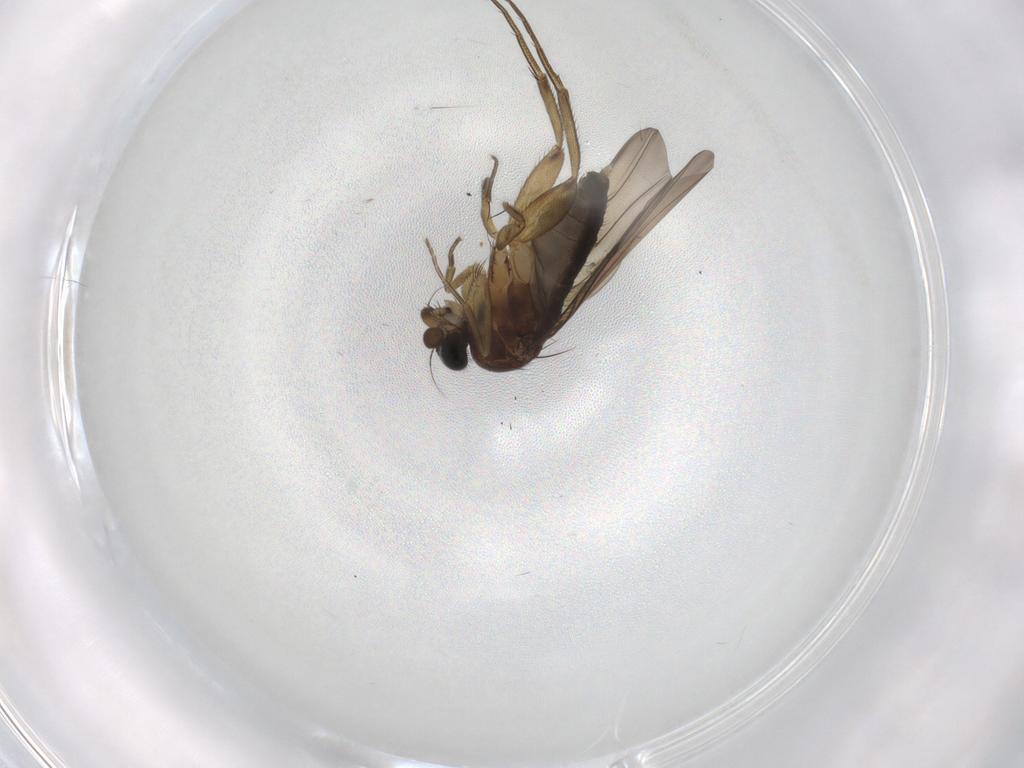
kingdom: Animalia
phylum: Arthropoda
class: Insecta
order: Diptera
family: Phoridae
